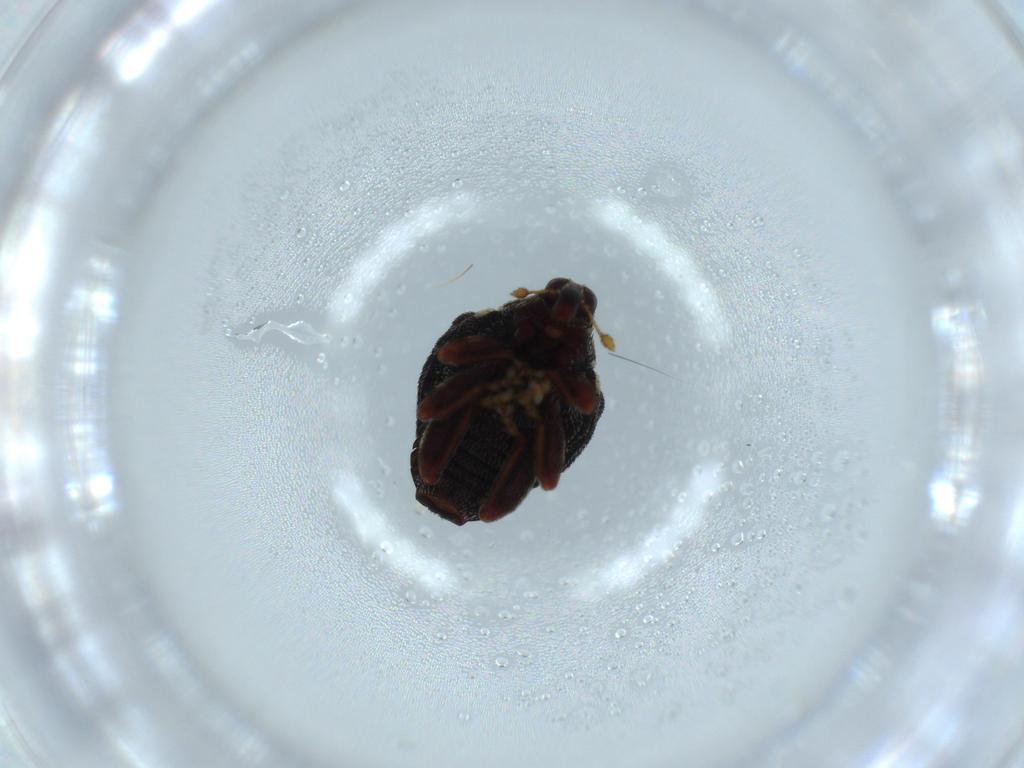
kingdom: Animalia
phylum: Arthropoda
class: Insecta
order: Coleoptera
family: Curculionidae
